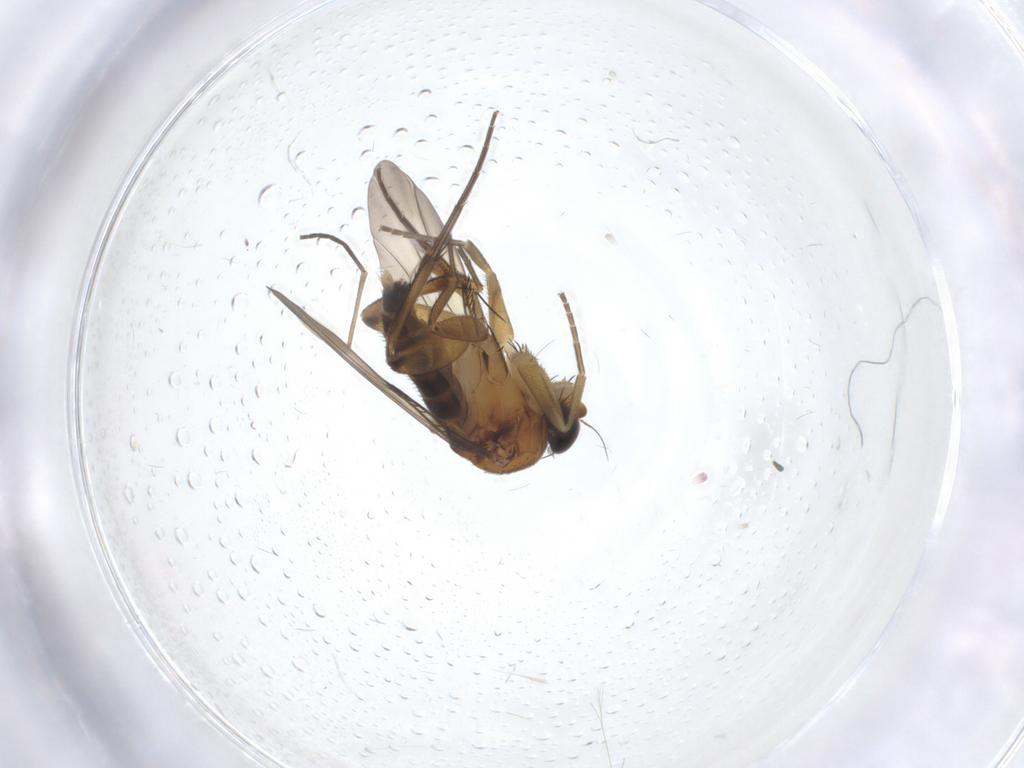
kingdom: Animalia
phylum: Arthropoda
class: Insecta
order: Diptera
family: Phoridae
